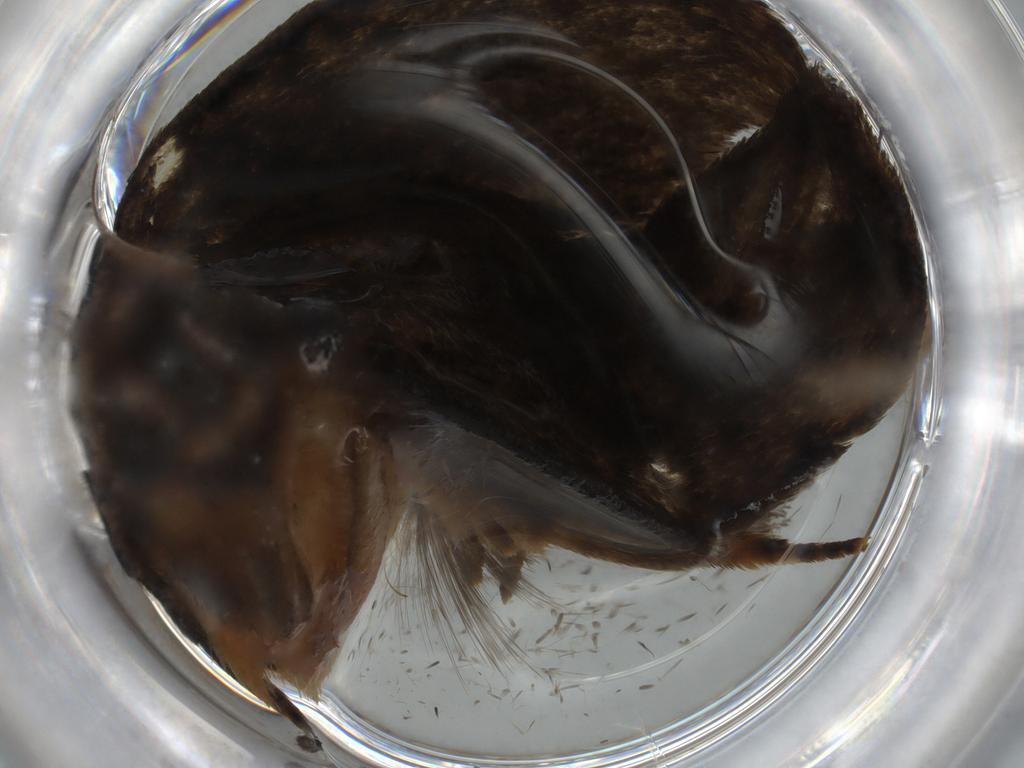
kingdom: Animalia
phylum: Arthropoda
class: Insecta
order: Lepidoptera
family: Tineidae
